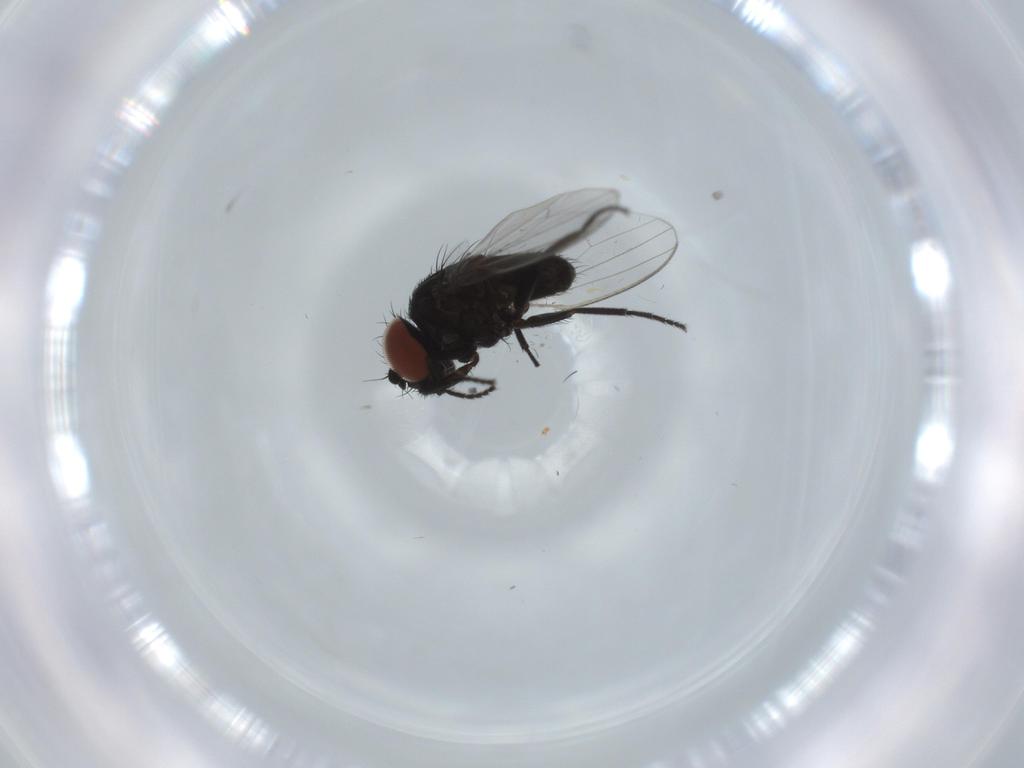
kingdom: Animalia
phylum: Arthropoda
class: Insecta
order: Diptera
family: Milichiidae
